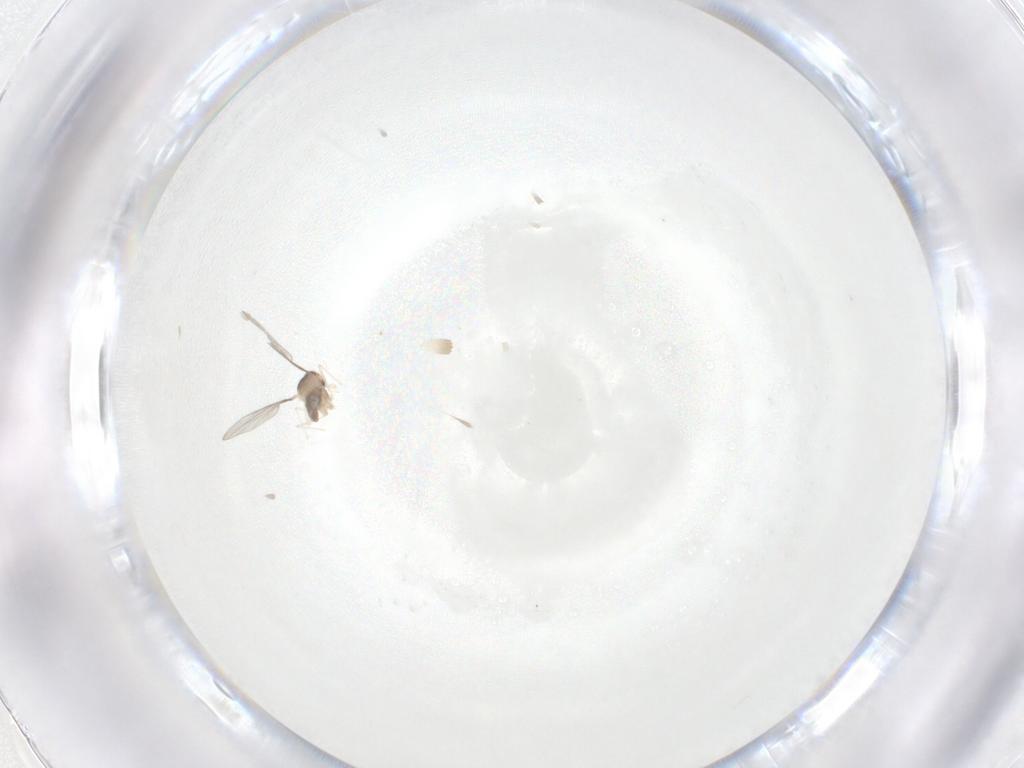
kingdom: Animalia
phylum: Arthropoda
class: Insecta
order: Diptera
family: Cecidomyiidae
